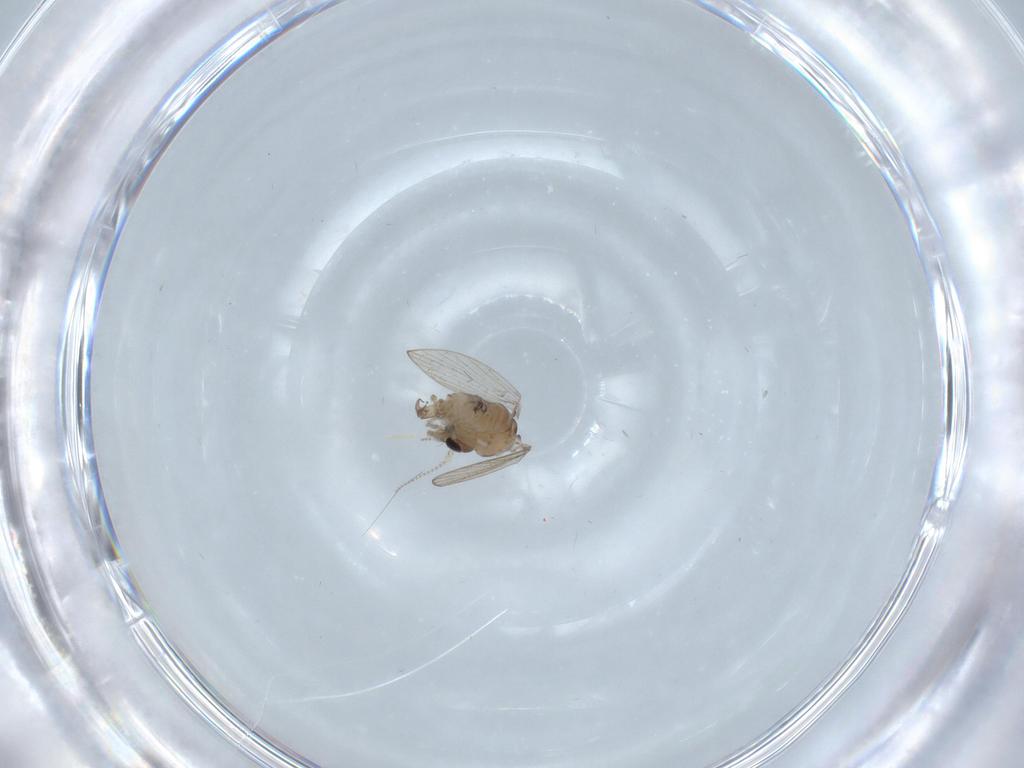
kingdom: Animalia
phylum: Arthropoda
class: Insecta
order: Diptera
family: Psychodidae
